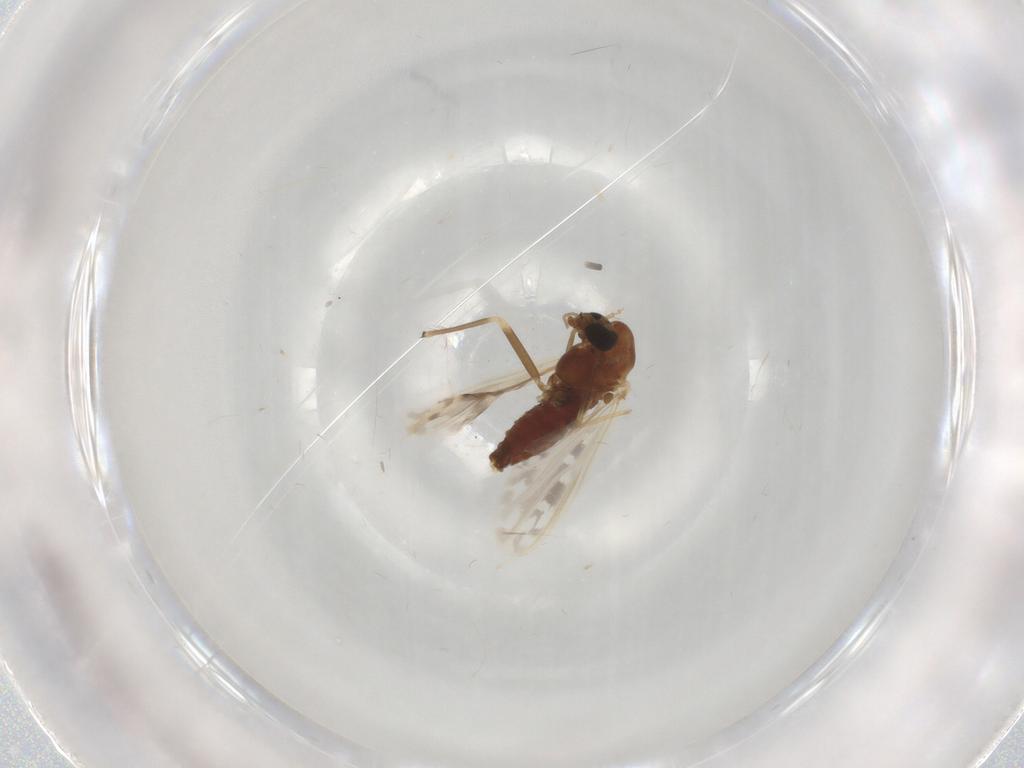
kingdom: Animalia
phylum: Arthropoda
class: Insecta
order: Diptera
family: Chironomidae
